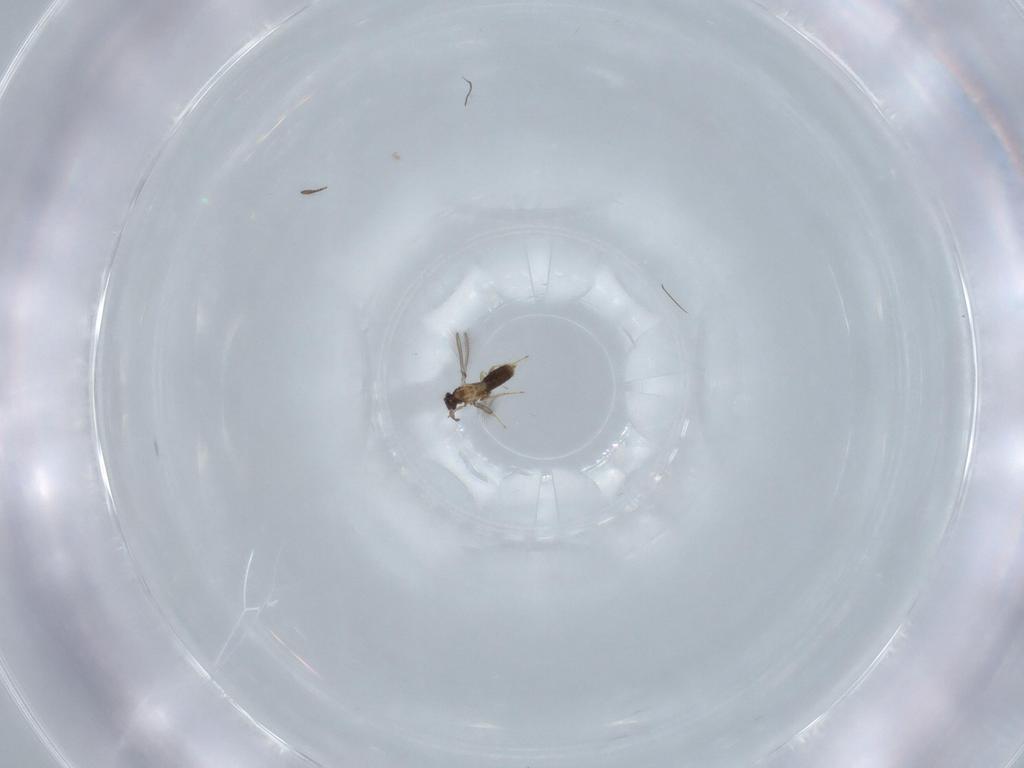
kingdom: Animalia
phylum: Arthropoda
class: Insecta
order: Hymenoptera
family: Mymaridae
